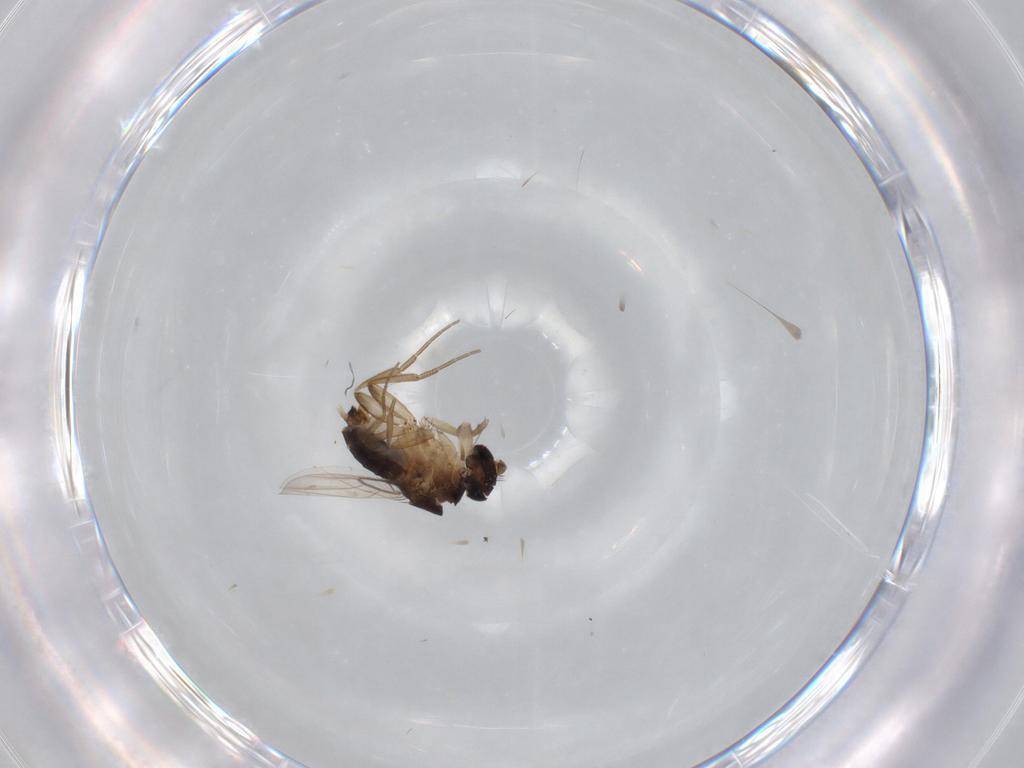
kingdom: Animalia
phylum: Arthropoda
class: Insecta
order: Diptera
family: Phoridae
